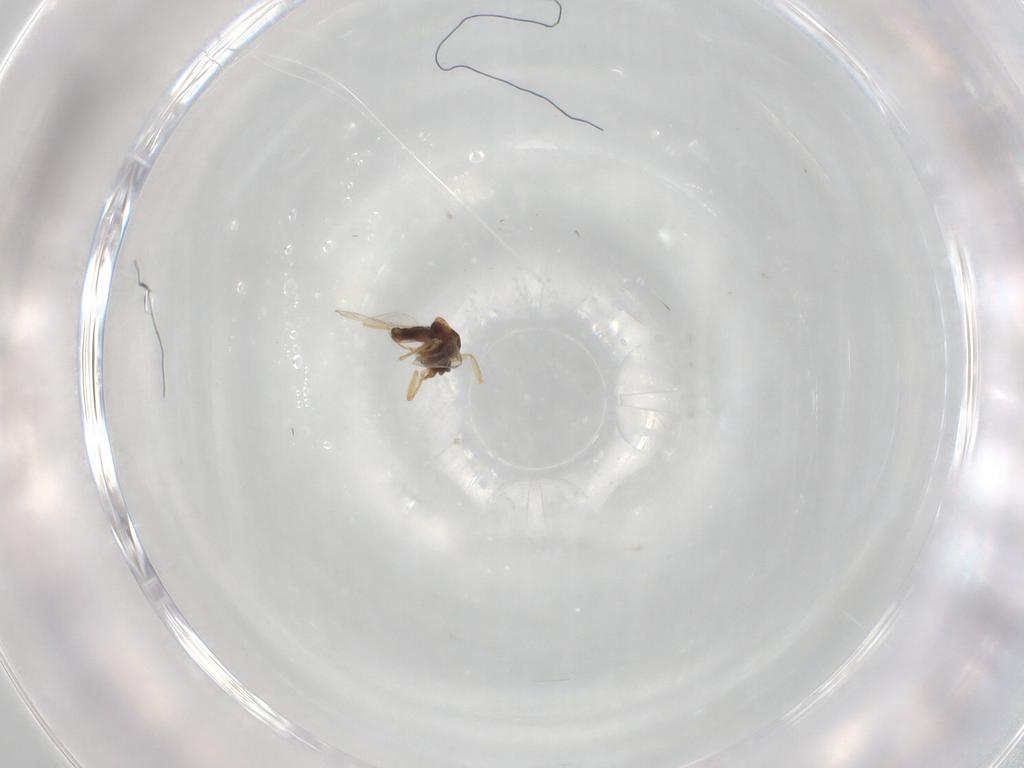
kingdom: Animalia
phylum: Arthropoda
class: Insecta
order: Diptera
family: Ceratopogonidae
